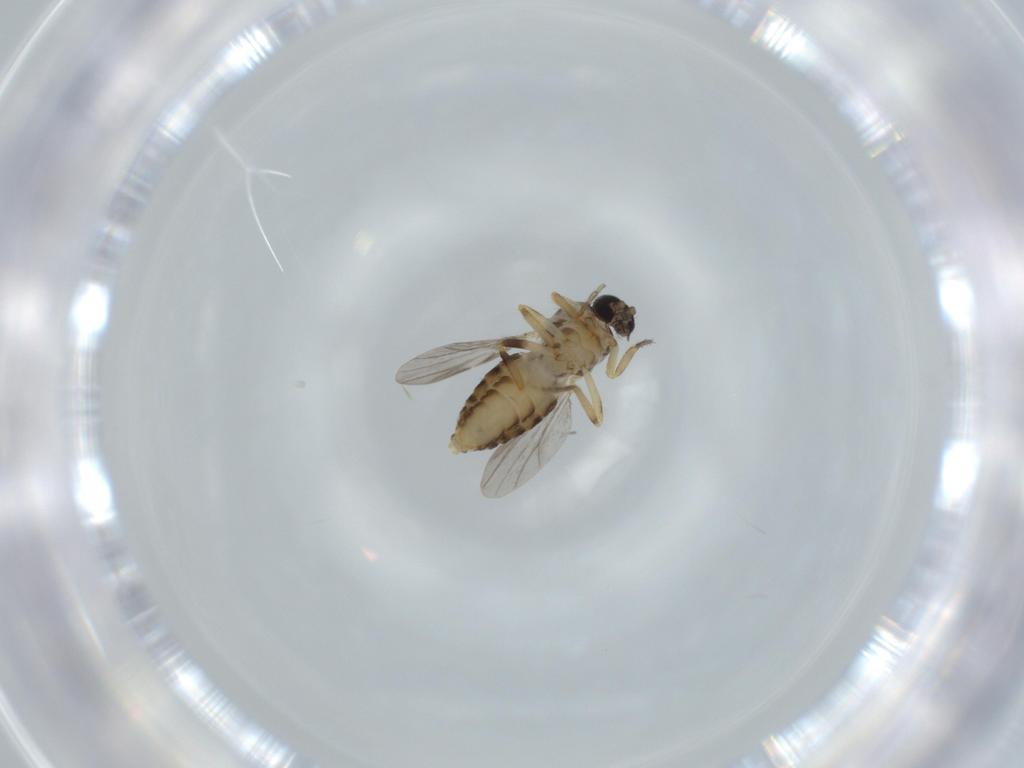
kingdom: Animalia
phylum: Arthropoda
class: Insecta
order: Diptera
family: Ceratopogonidae
